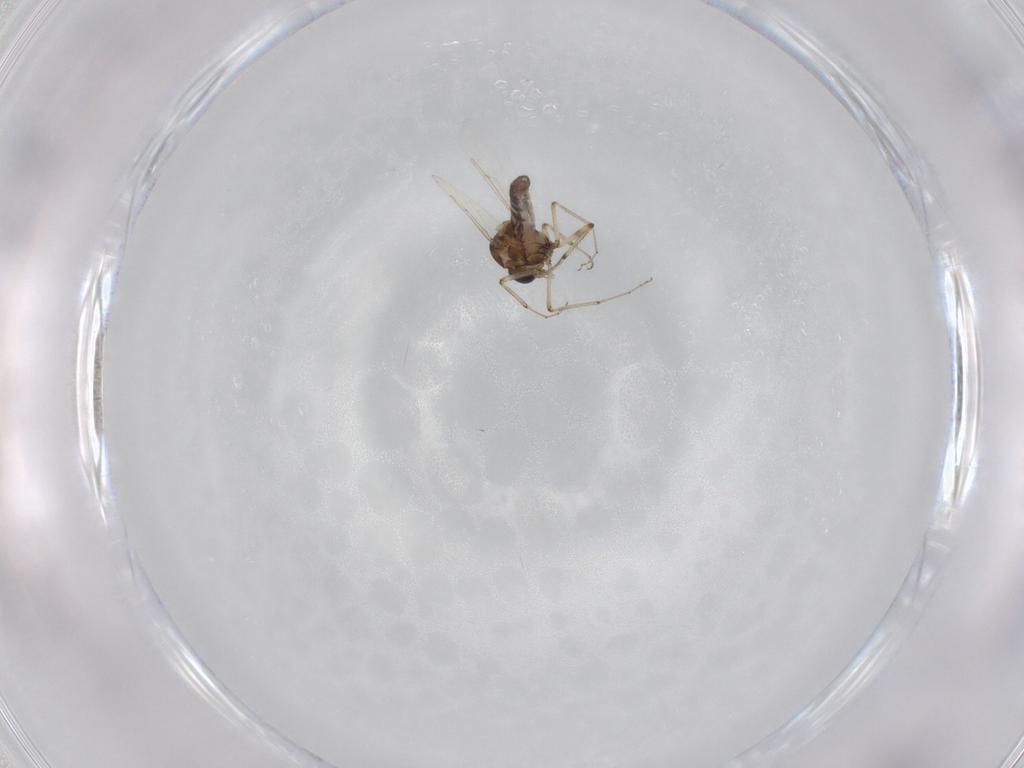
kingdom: Animalia
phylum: Arthropoda
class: Insecta
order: Diptera
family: Ceratopogonidae
